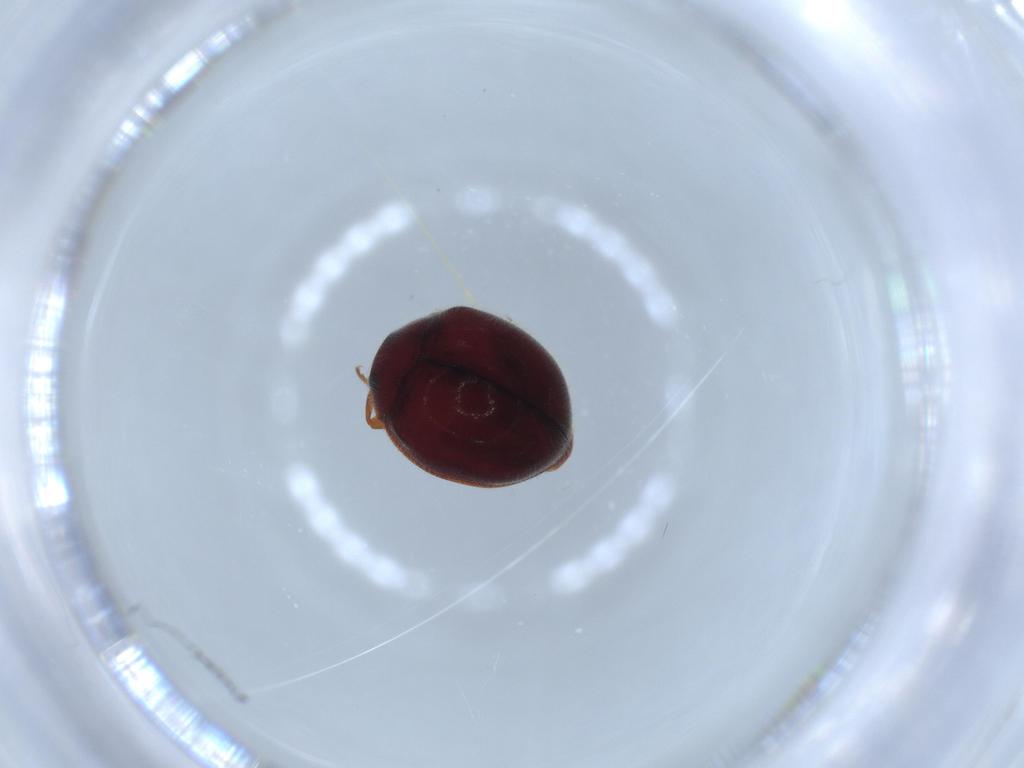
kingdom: Animalia
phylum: Arthropoda
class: Insecta
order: Coleoptera
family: Coccinellidae
